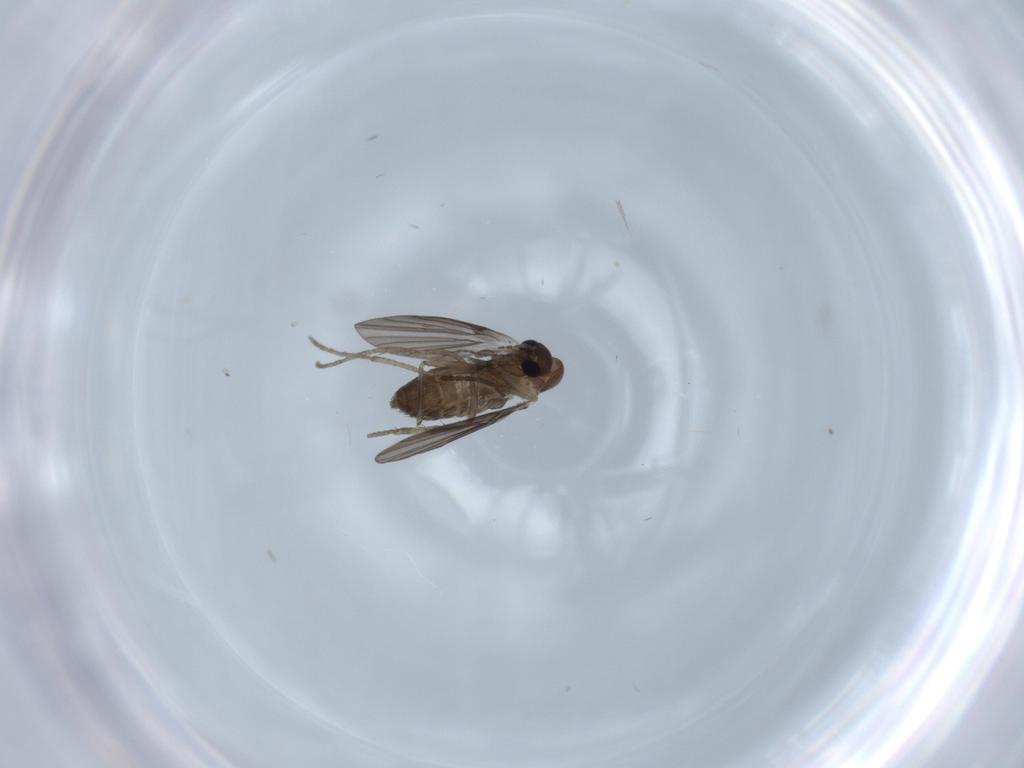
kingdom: Animalia
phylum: Arthropoda
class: Insecta
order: Diptera
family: Psychodidae
